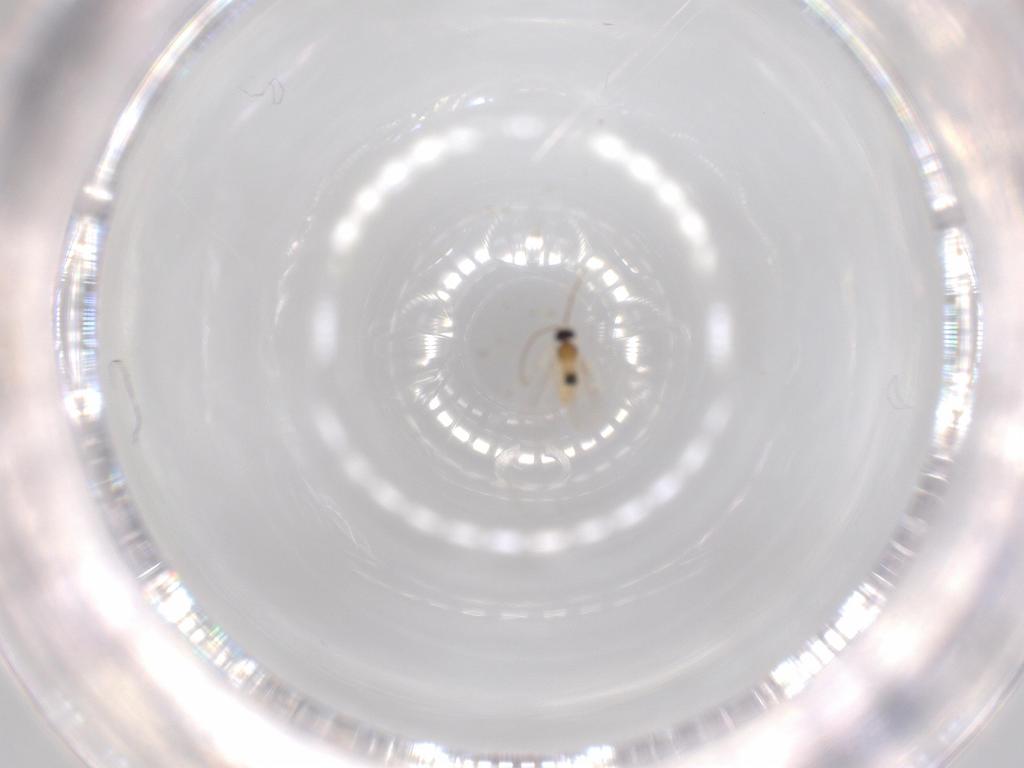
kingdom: Animalia
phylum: Arthropoda
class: Insecta
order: Diptera
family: Cecidomyiidae
